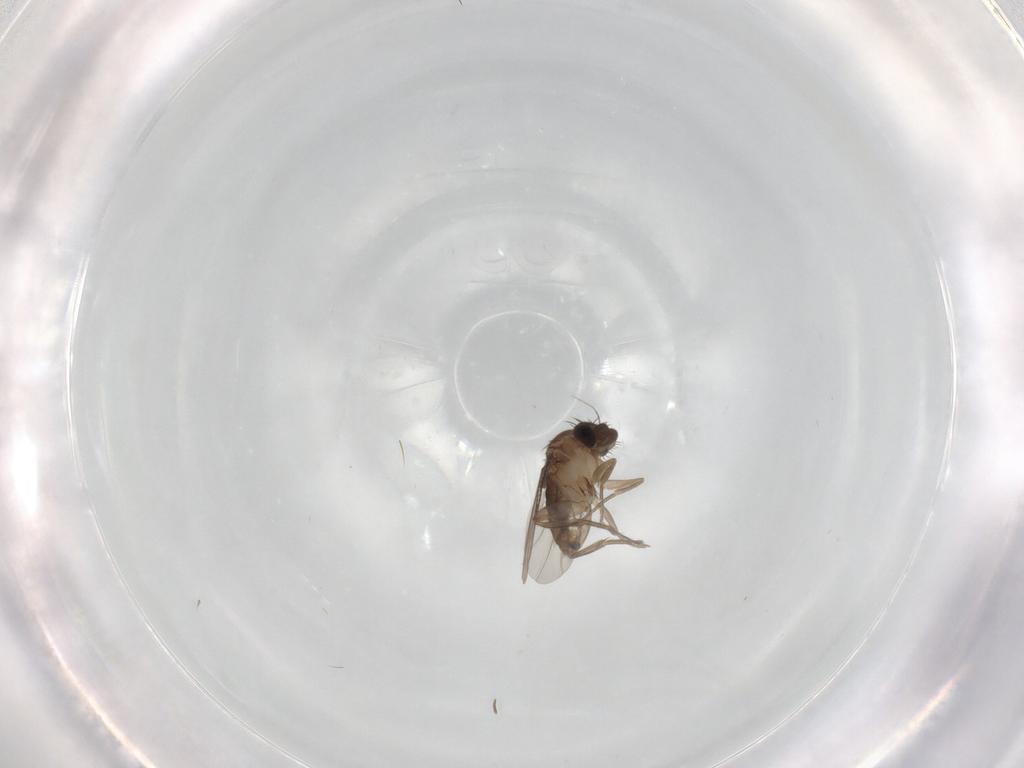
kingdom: Animalia
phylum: Arthropoda
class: Insecta
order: Diptera
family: Phoridae
